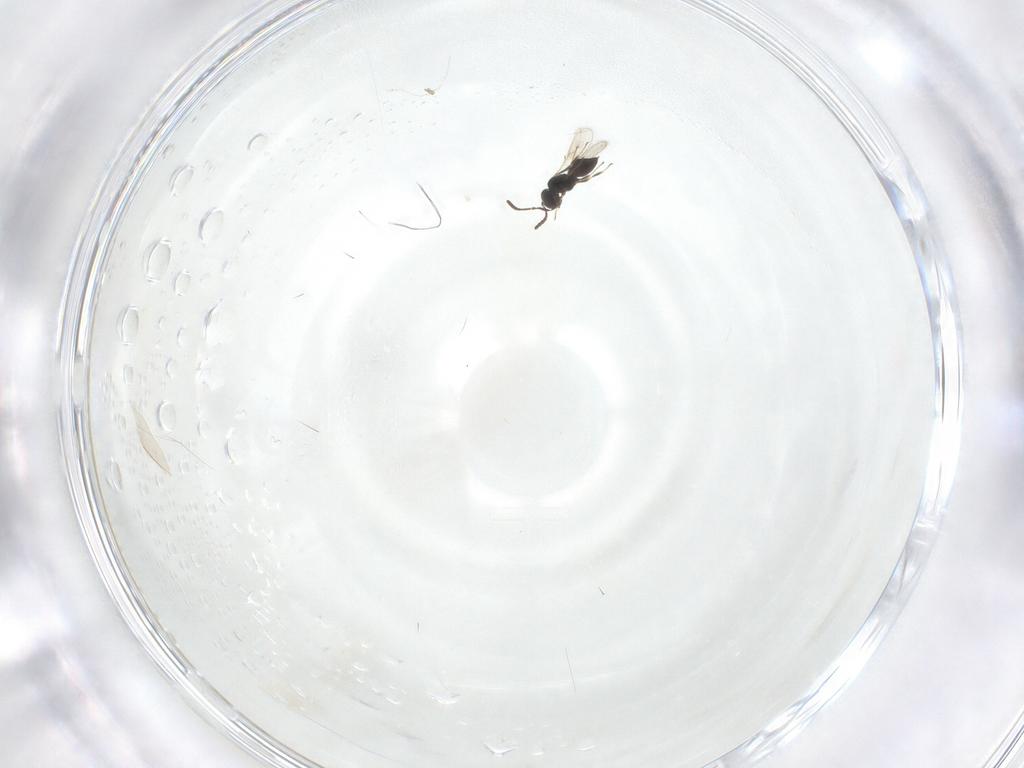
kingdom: Animalia
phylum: Arthropoda
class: Insecta
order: Hymenoptera
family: Scelionidae
